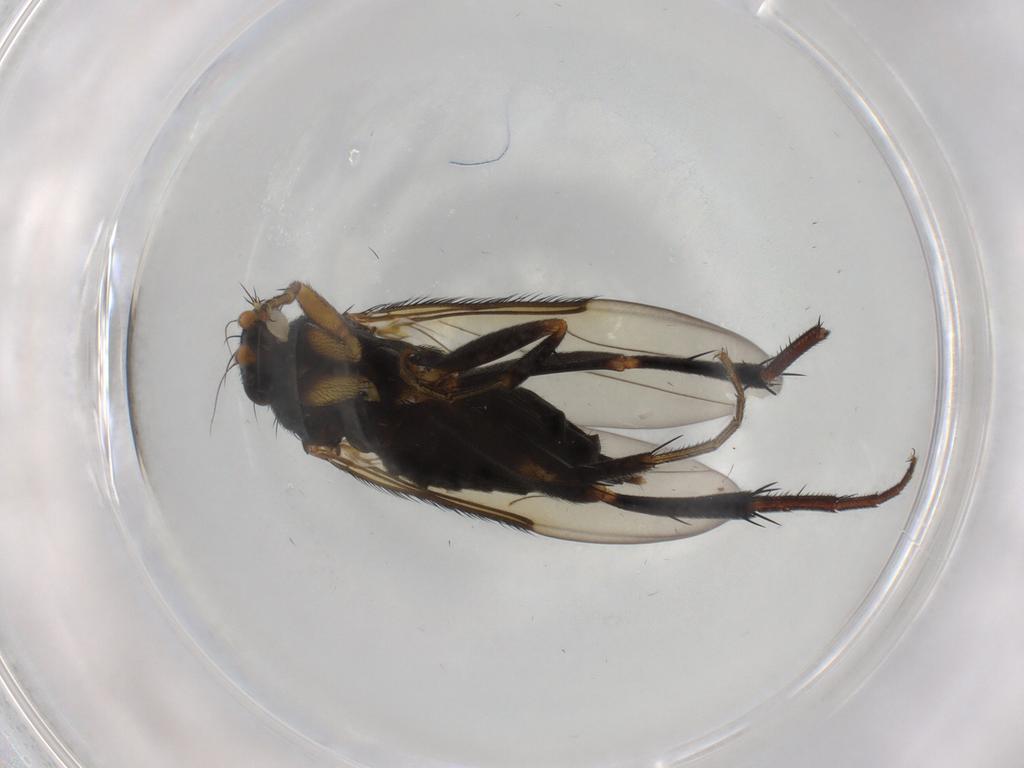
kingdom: Animalia
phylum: Arthropoda
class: Insecta
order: Diptera
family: Phoridae
